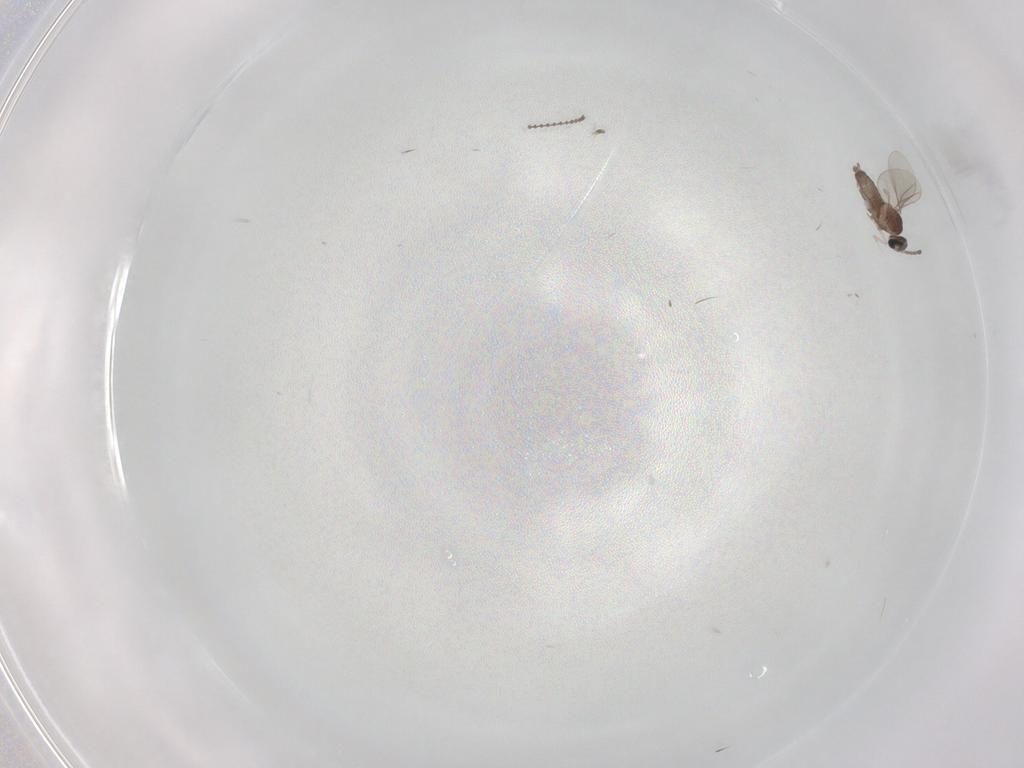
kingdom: Animalia
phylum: Arthropoda
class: Insecta
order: Diptera
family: Cecidomyiidae
